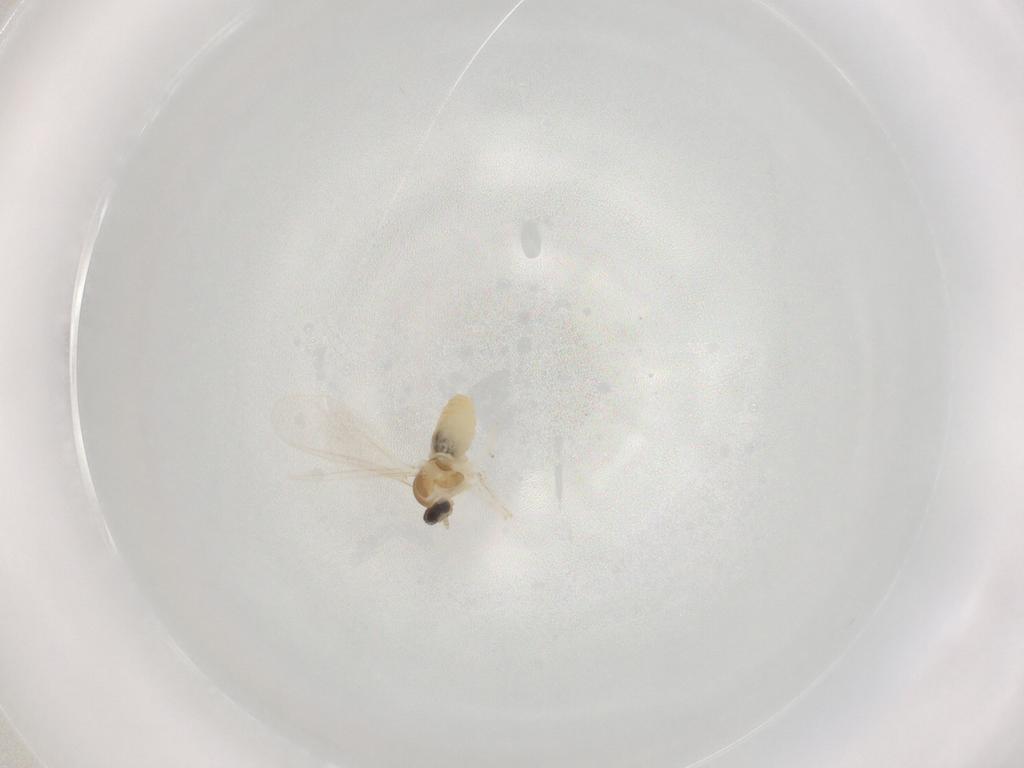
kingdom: Animalia
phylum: Arthropoda
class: Insecta
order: Diptera
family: Cecidomyiidae
